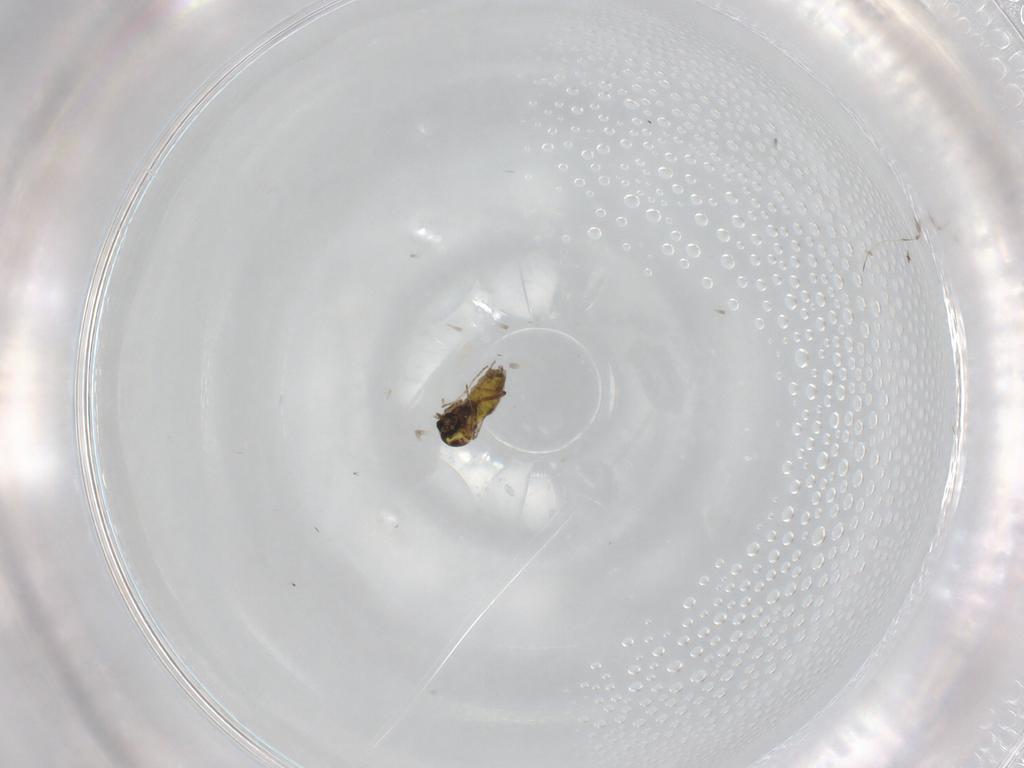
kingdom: Animalia
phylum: Arthropoda
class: Insecta
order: Diptera
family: Ceratopogonidae
